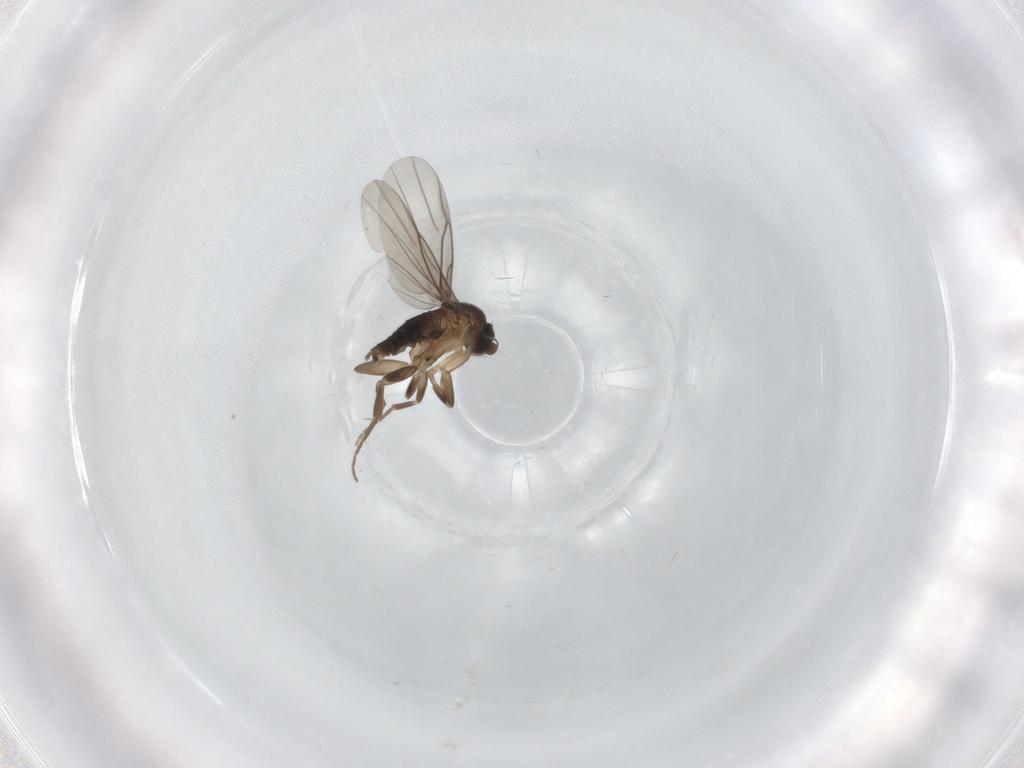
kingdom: Animalia
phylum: Arthropoda
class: Insecta
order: Diptera
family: Phoridae
